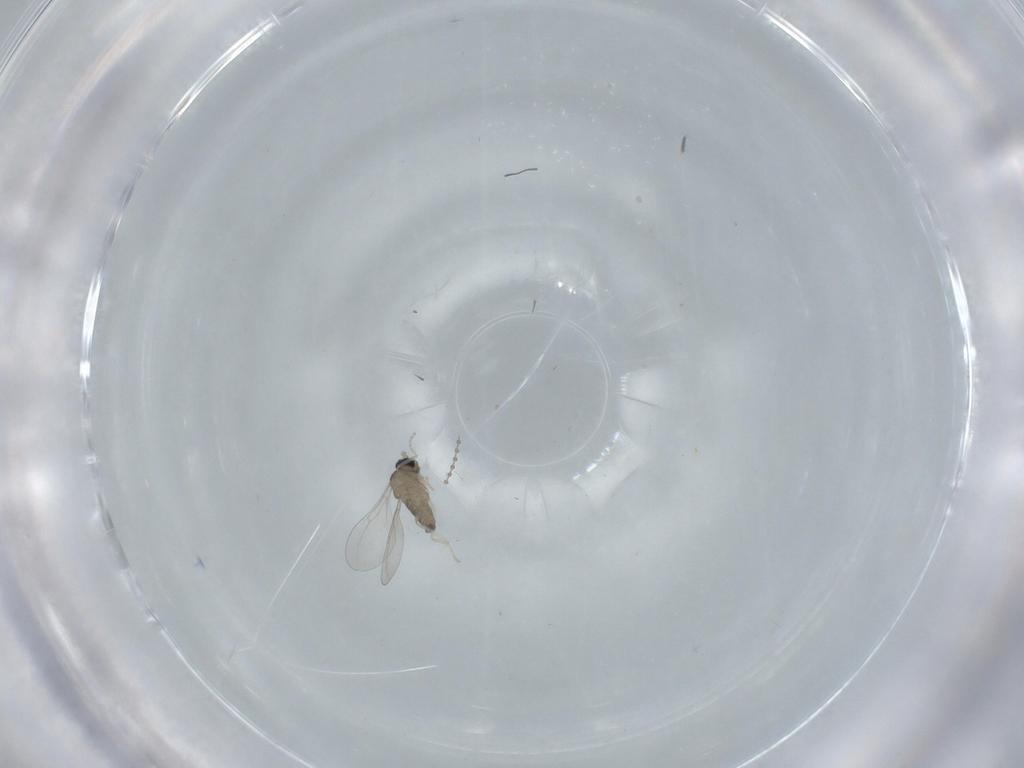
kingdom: Animalia
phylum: Arthropoda
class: Insecta
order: Diptera
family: Cecidomyiidae
